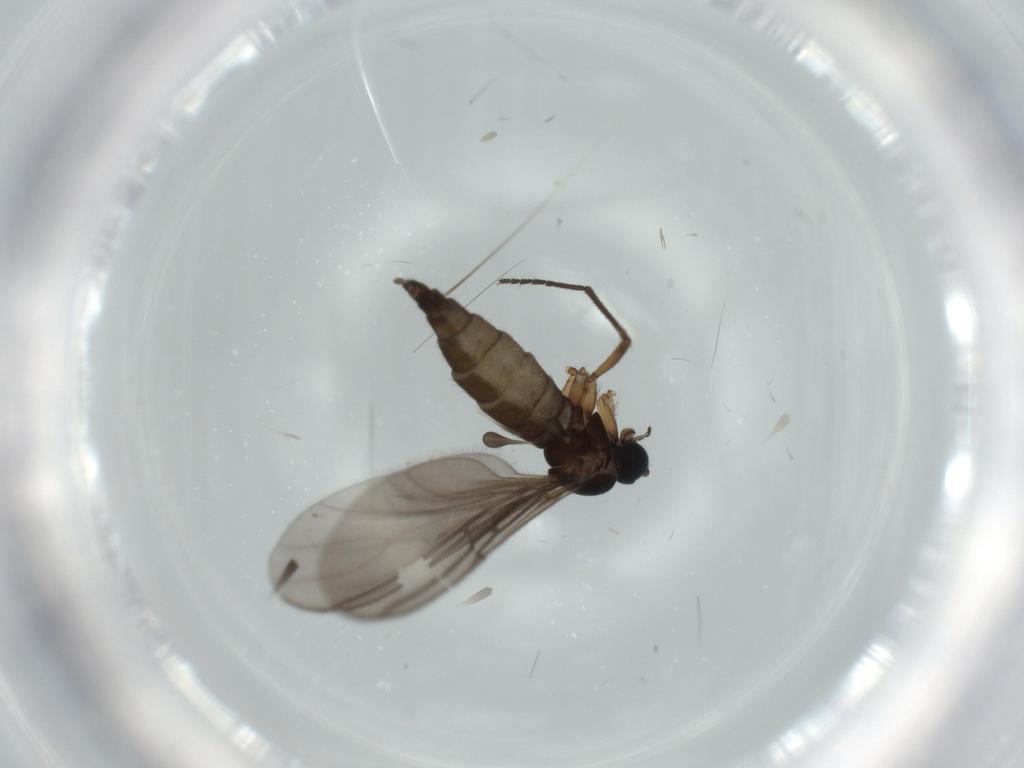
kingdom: Animalia
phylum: Arthropoda
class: Insecta
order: Diptera
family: Sciaridae
